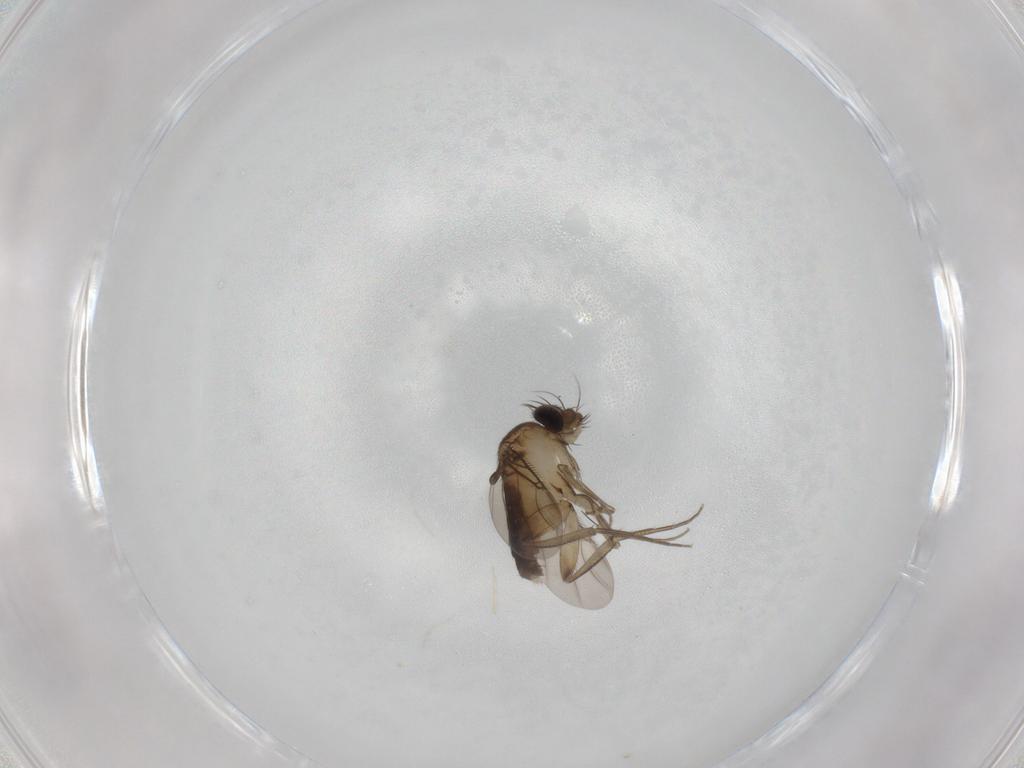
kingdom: Animalia
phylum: Arthropoda
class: Insecta
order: Diptera
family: Phoridae
